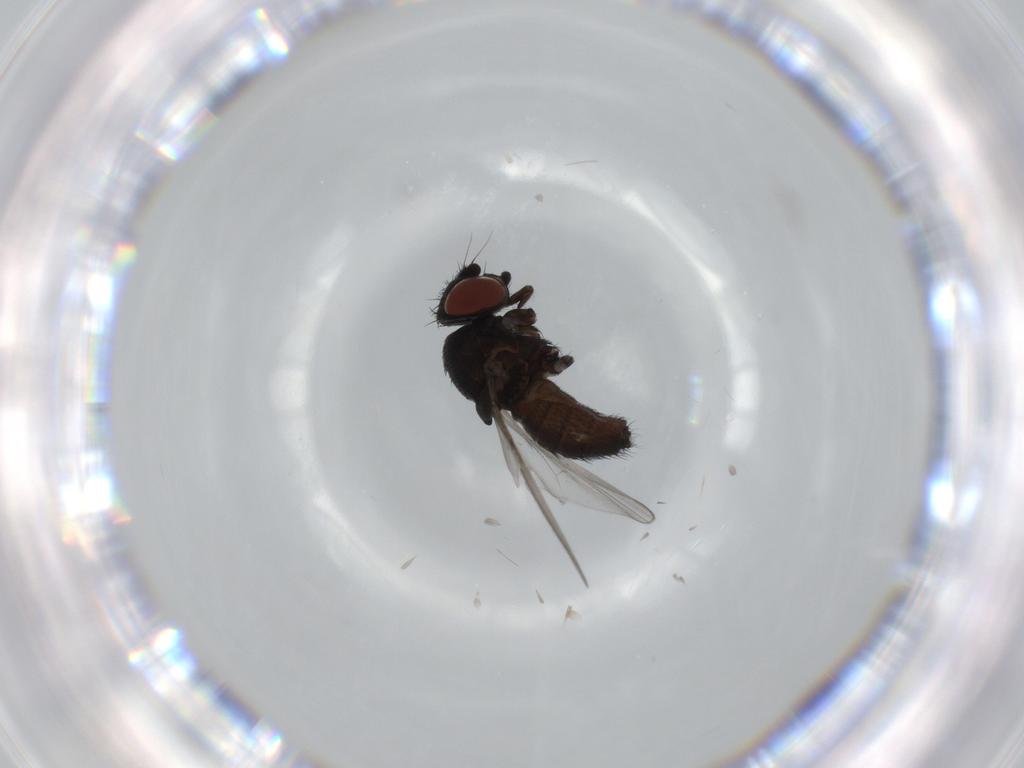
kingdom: Animalia
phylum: Arthropoda
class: Insecta
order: Diptera
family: Milichiidae
